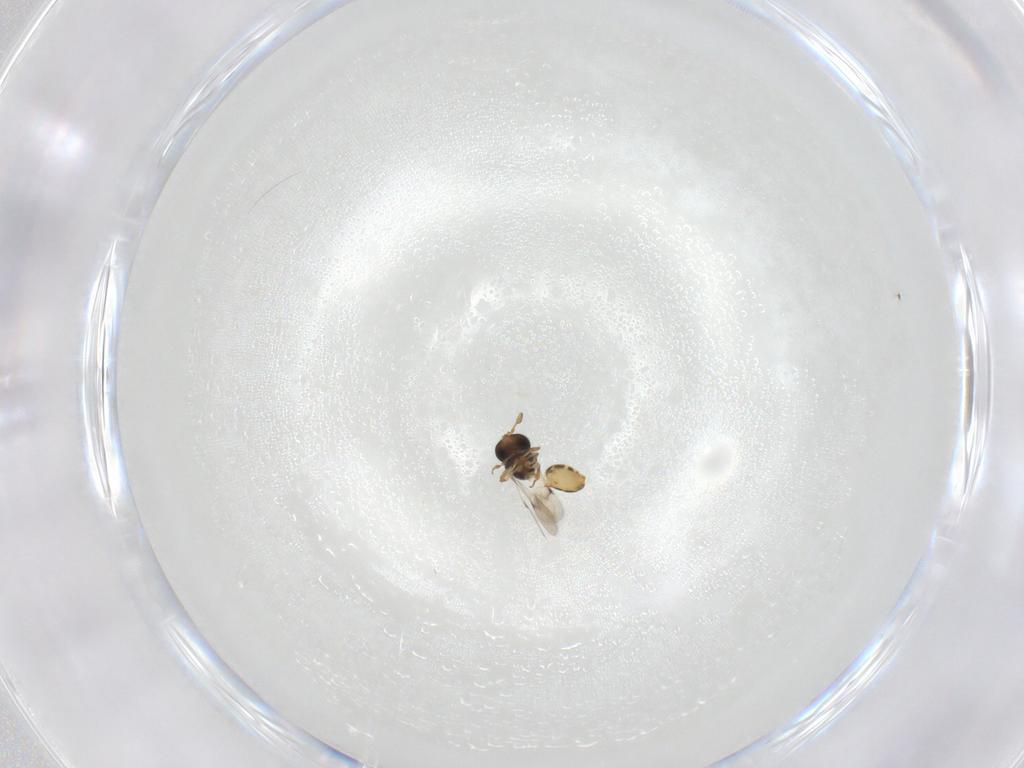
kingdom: Animalia
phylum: Arthropoda
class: Insecta
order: Hymenoptera
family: Scelionidae
